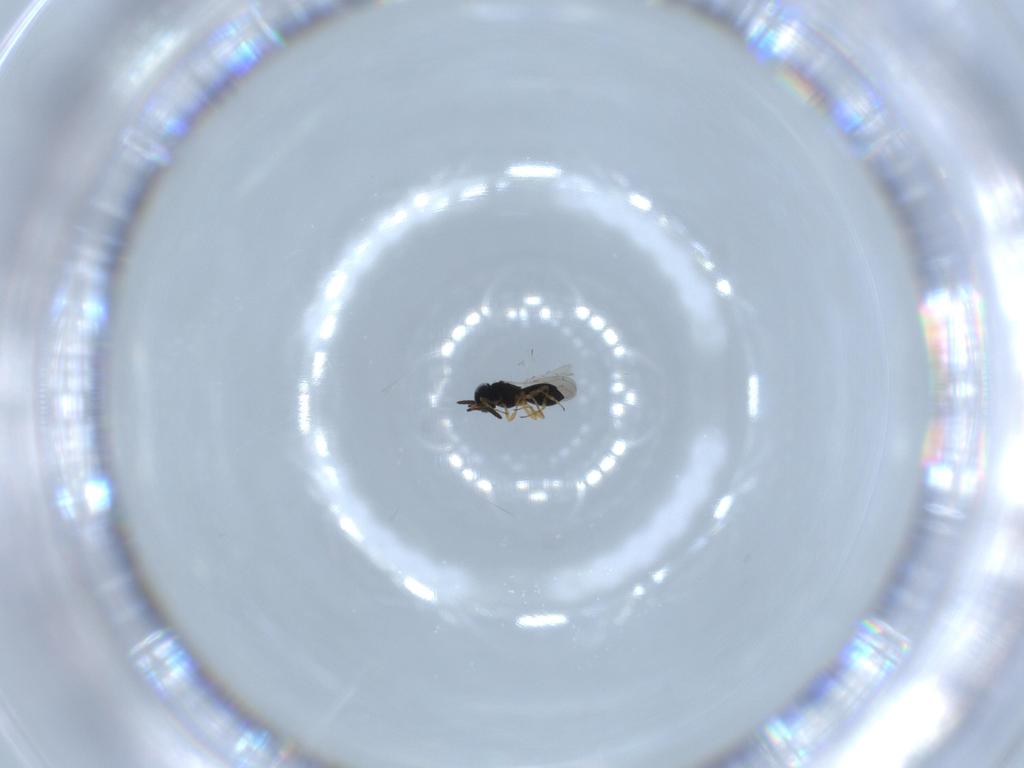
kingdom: Animalia
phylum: Arthropoda
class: Insecta
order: Hymenoptera
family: Scelionidae
